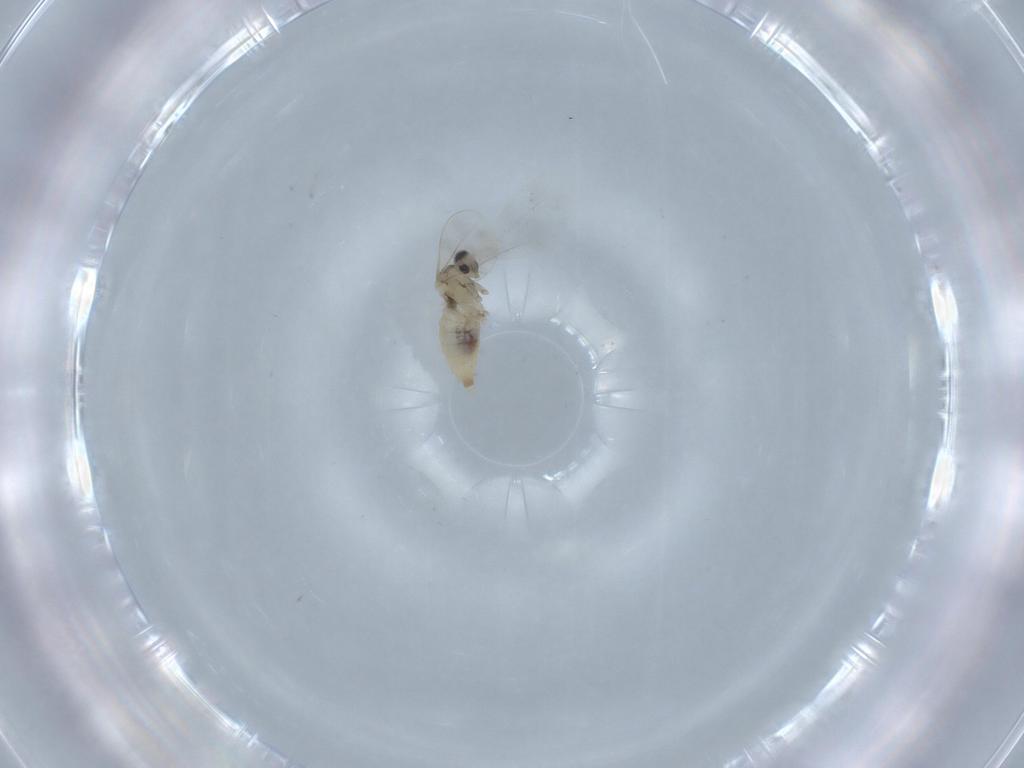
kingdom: Animalia
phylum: Arthropoda
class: Insecta
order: Diptera
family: Cecidomyiidae
